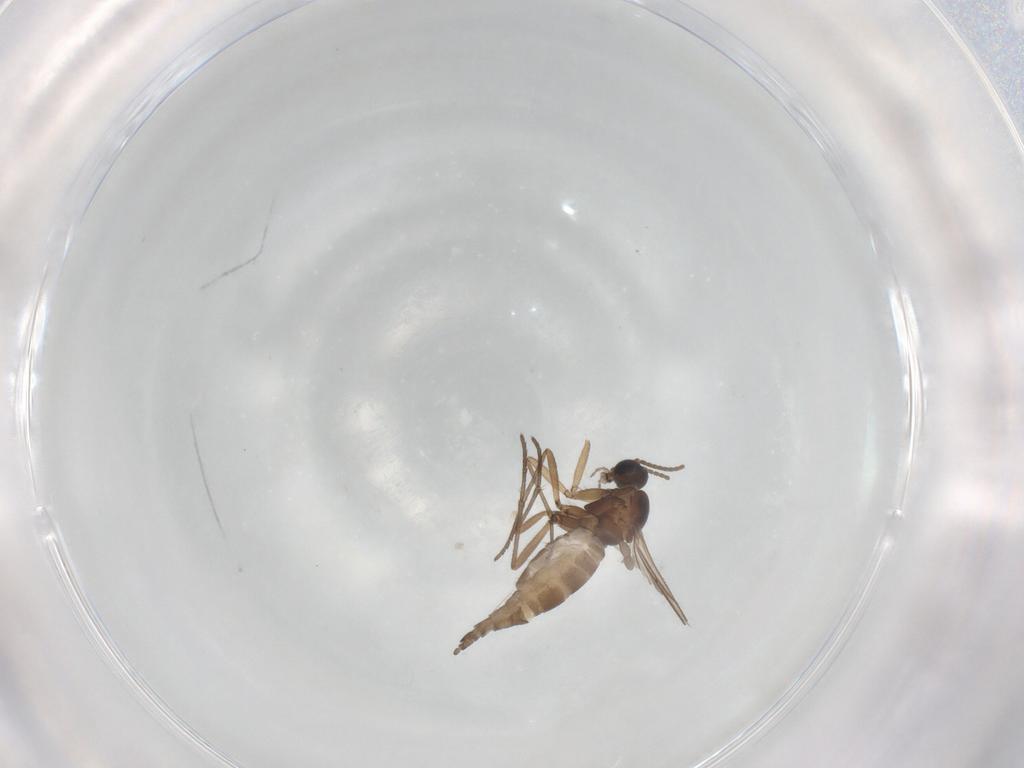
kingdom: Animalia
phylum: Arthropoda
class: Insecta
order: Diptera
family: Sciaridae
